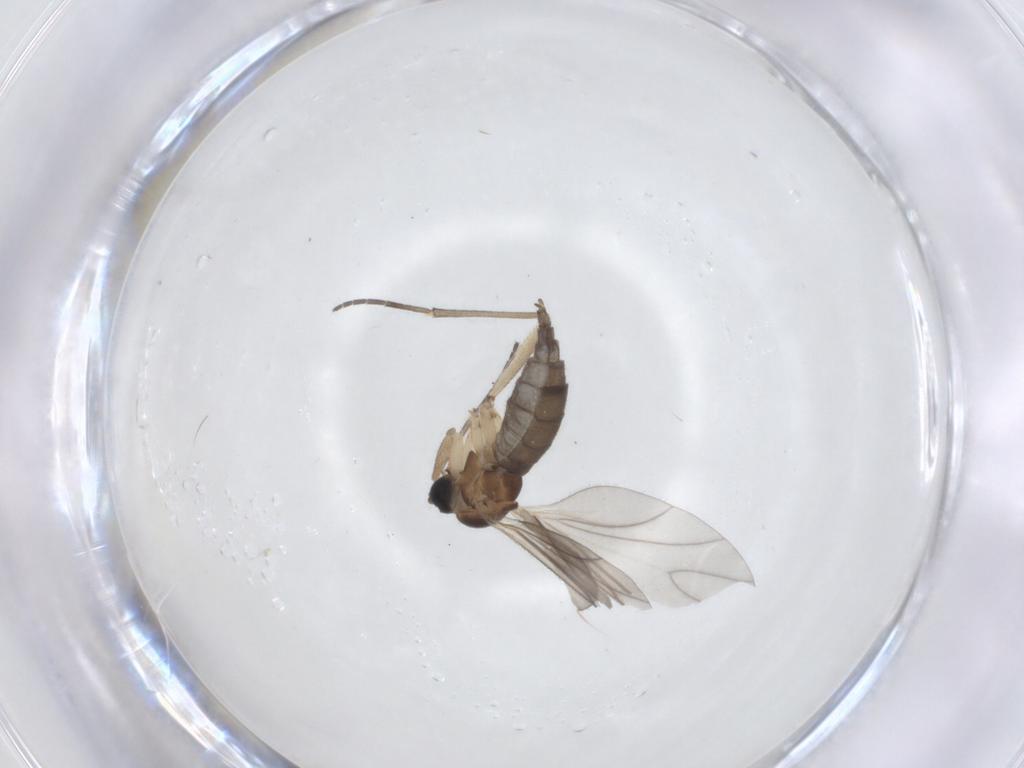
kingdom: Animalia
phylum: Arthropoda
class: Insecta
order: Diptera
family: Sciaridae
